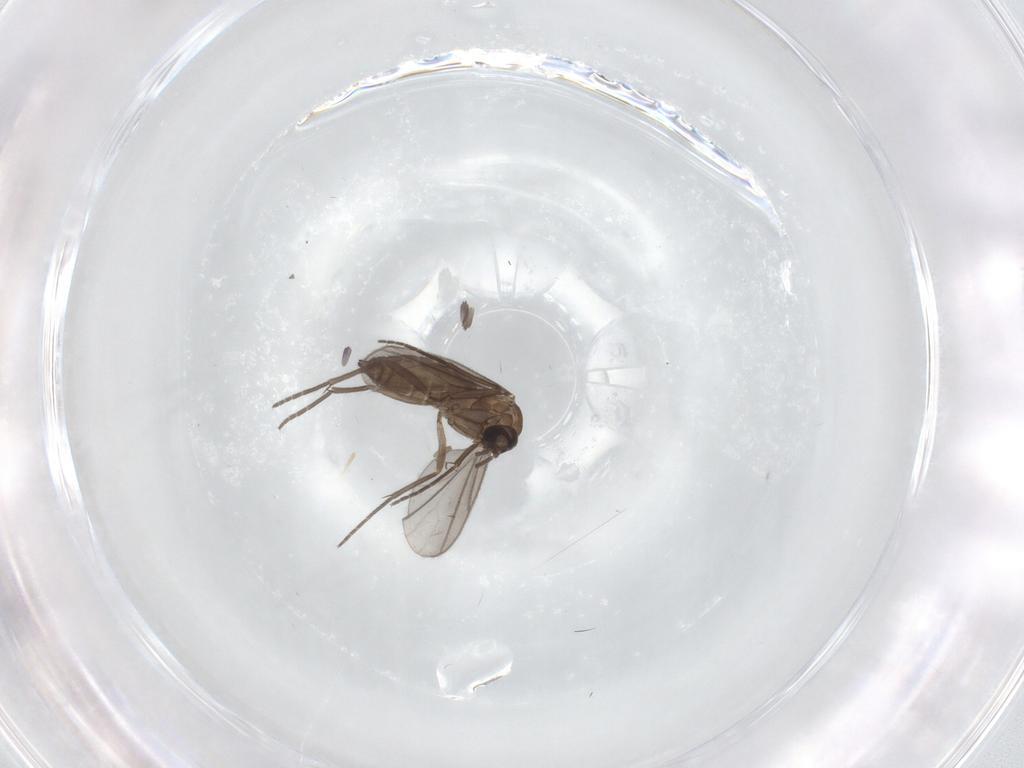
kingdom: Animalia
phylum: Arthropoda
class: Insecta
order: Diptera
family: Sciaridae
